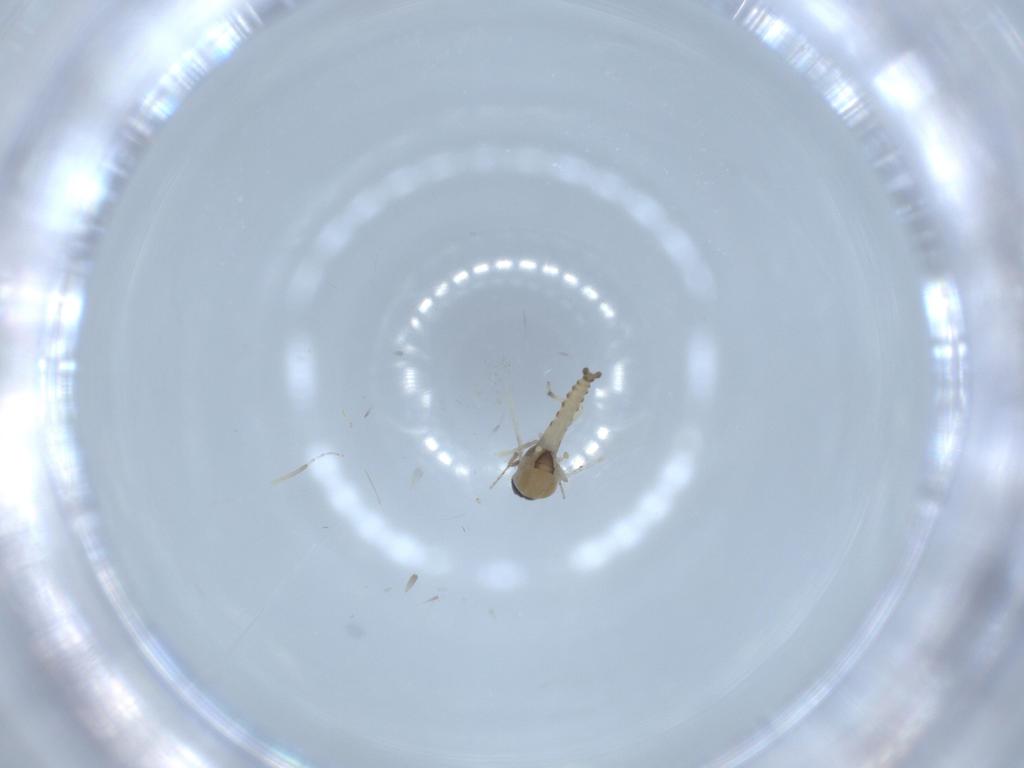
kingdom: Animalia
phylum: Arthropoda
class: Insecta
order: Diptera
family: Ceratopogonidae
